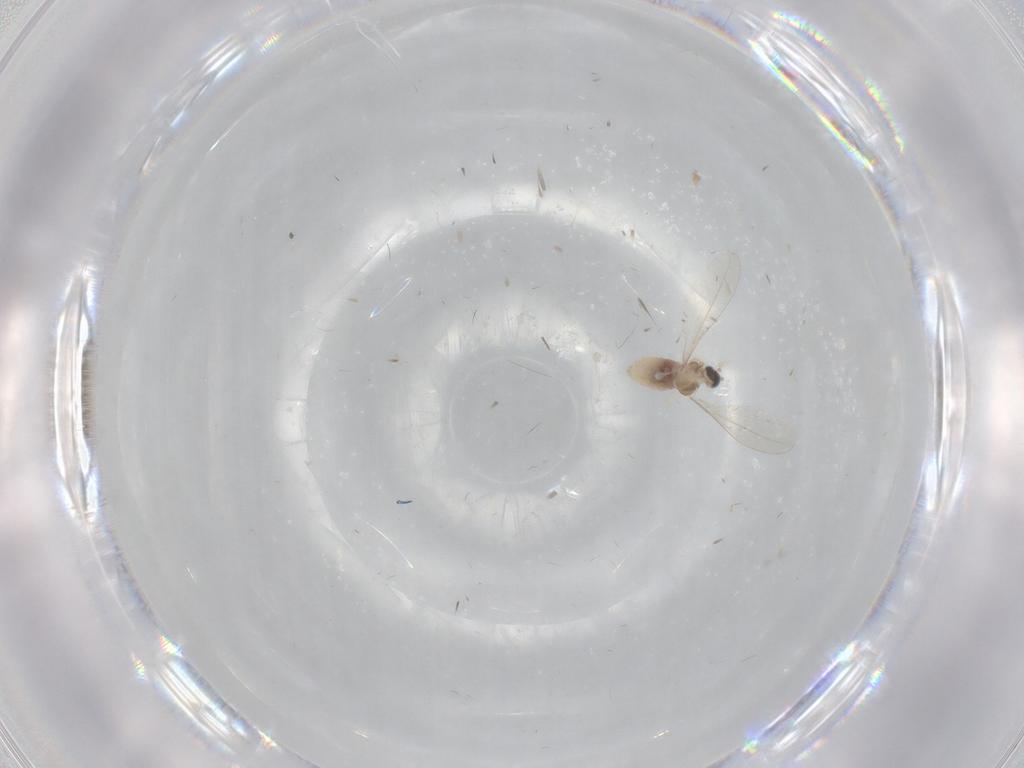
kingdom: Animalia
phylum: Arthropoda
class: Insecta
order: Diptera
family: Cecidomyiidae
